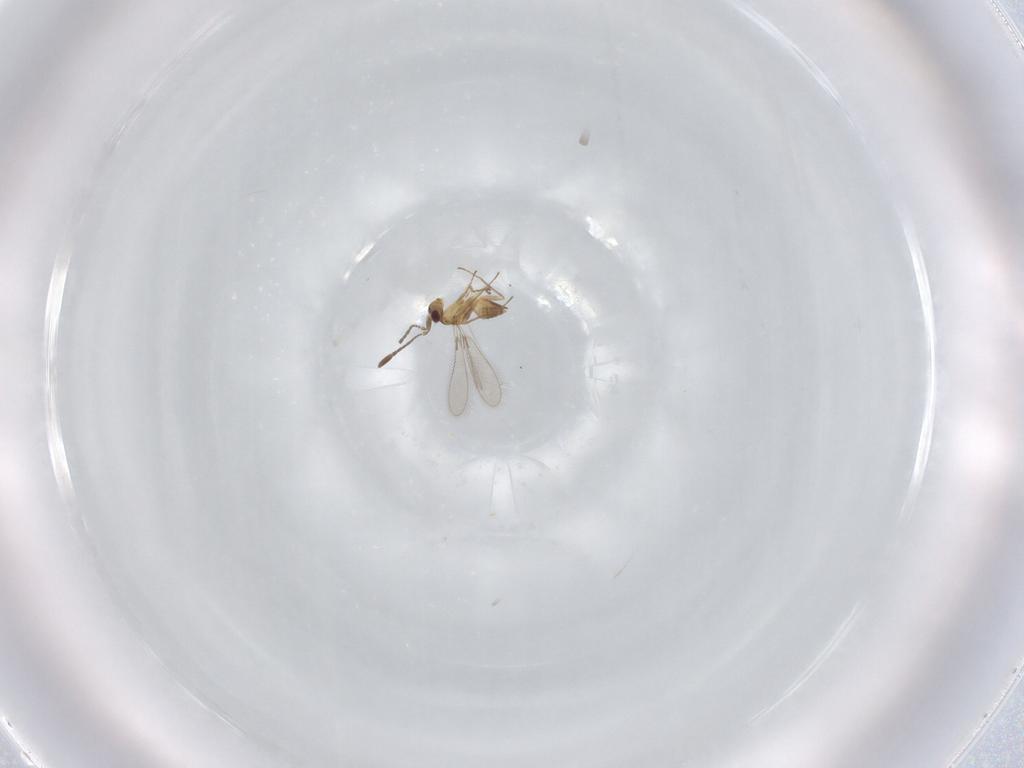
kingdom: Animalia
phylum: Arthropoda
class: Insecta
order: Hymenoptera
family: Mymaridae
